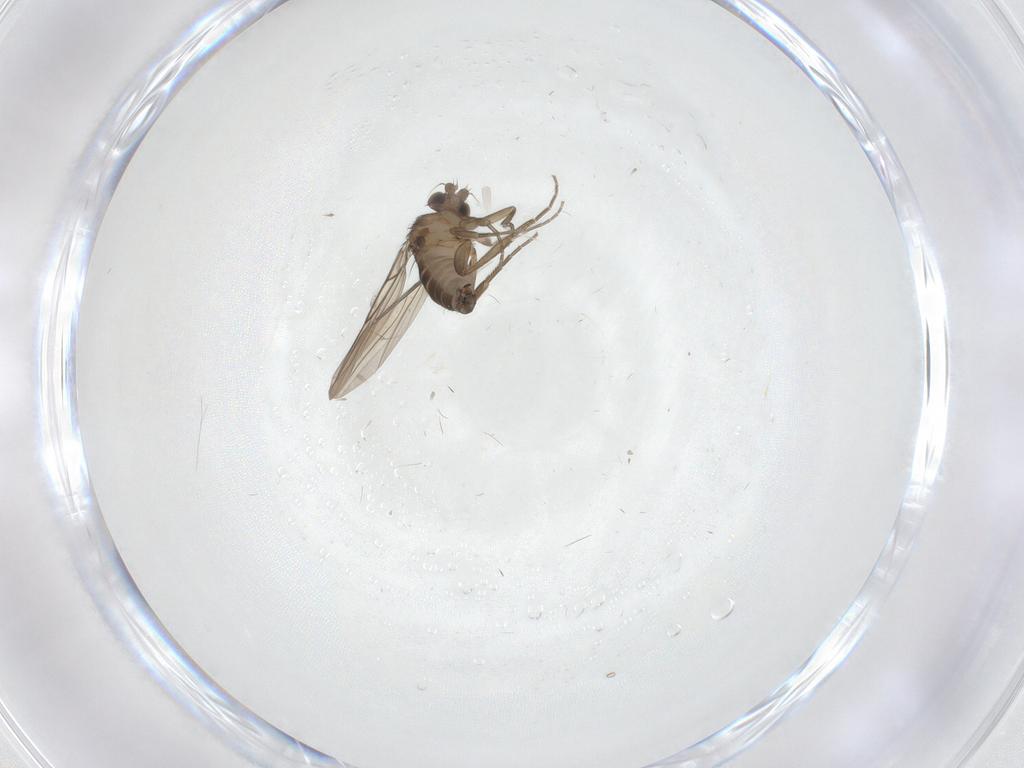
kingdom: Animalia
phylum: Arthropoda
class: Insecta
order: Diptera
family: Phoridae
